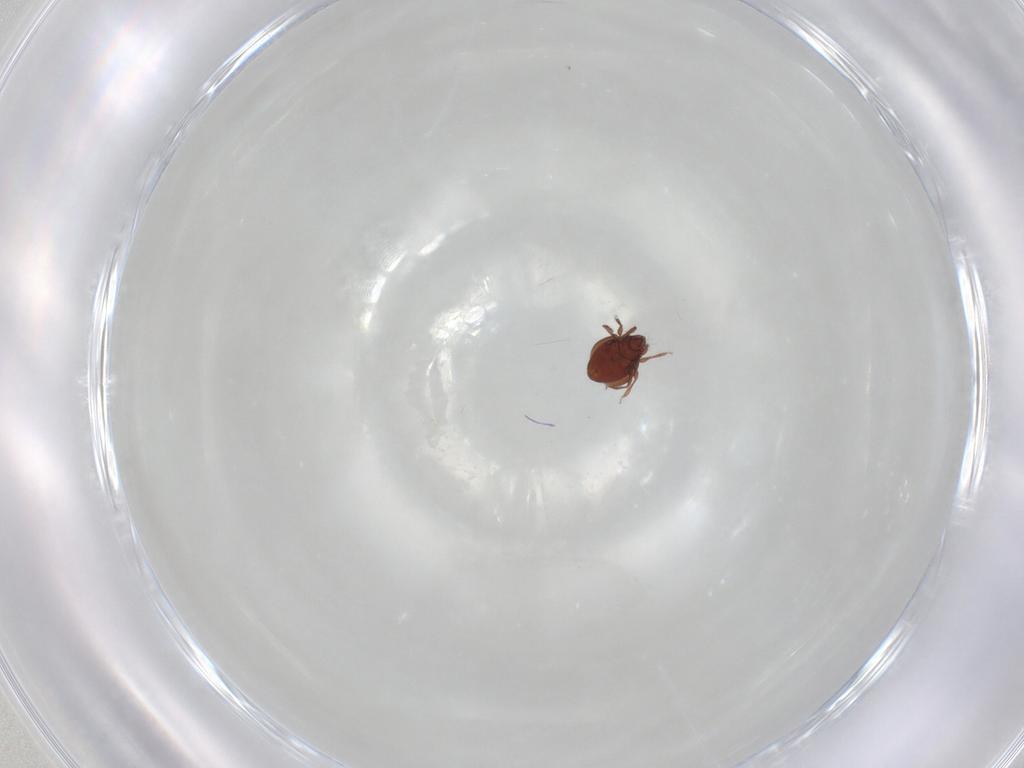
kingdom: Animalia
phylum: Arthropoda
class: Arachnida
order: Sarcoptiformes
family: Oribatulidae
